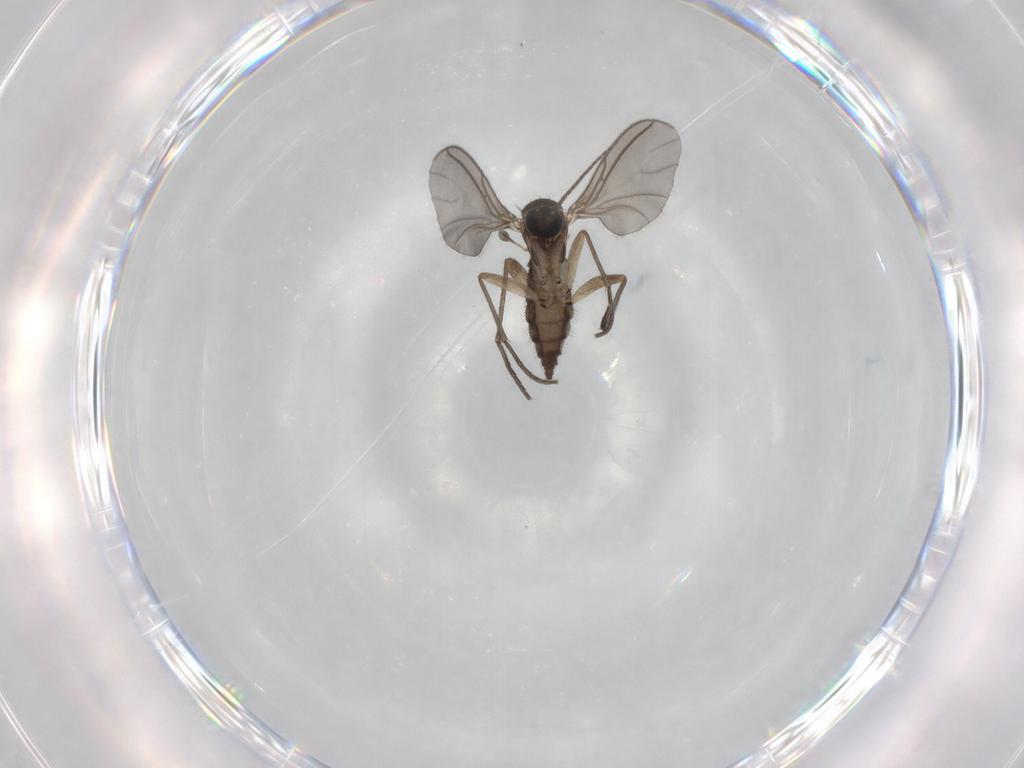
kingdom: Animalia
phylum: Arthropoda
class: Insecta
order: Diptera
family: Sciaridae
